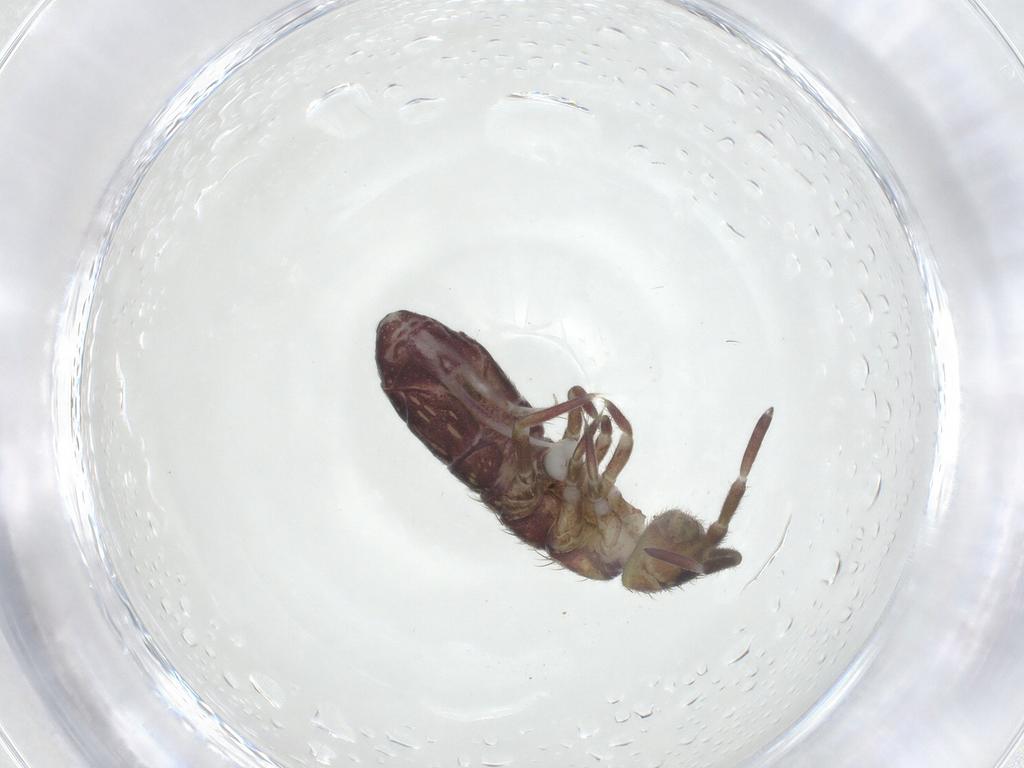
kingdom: Animalia
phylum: Arthropoda
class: Collembola
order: Entomobryomorpha
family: Isotomidae
